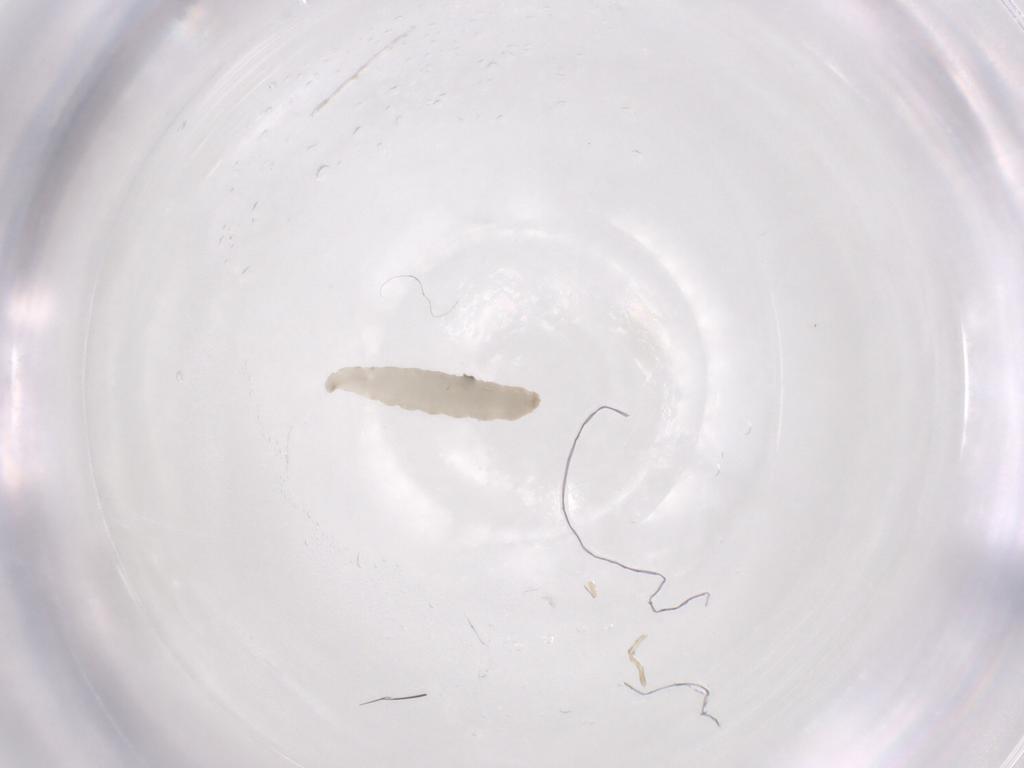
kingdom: Animalia
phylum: Arthropoda
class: Insecta
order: Diptera
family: Phoridae
